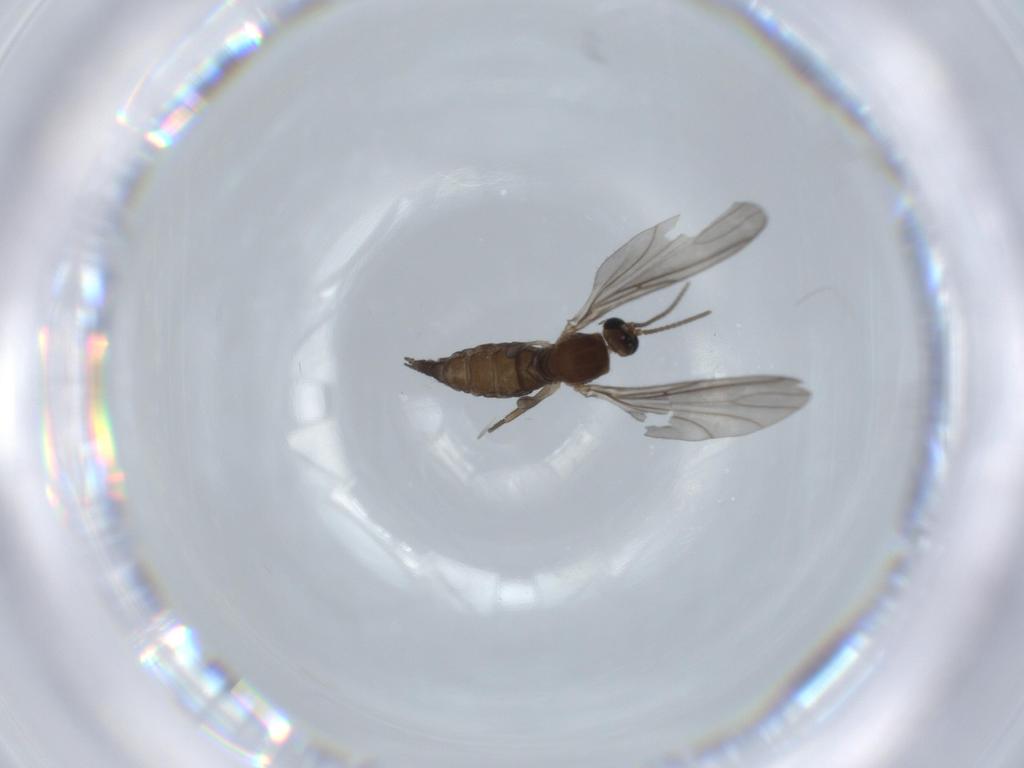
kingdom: Animalia
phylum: Arthropoda
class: Insecta
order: Diptera
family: Sciaridae
